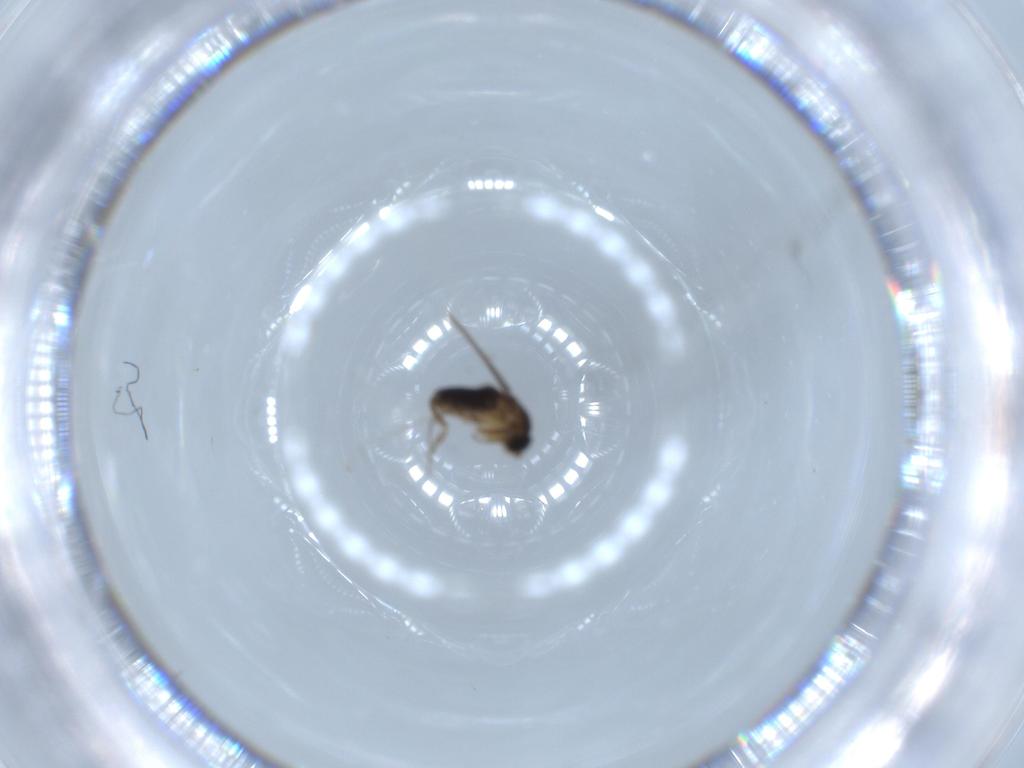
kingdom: Animalia
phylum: Arthropoda
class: Insecta
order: Diptera
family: Phoridae
